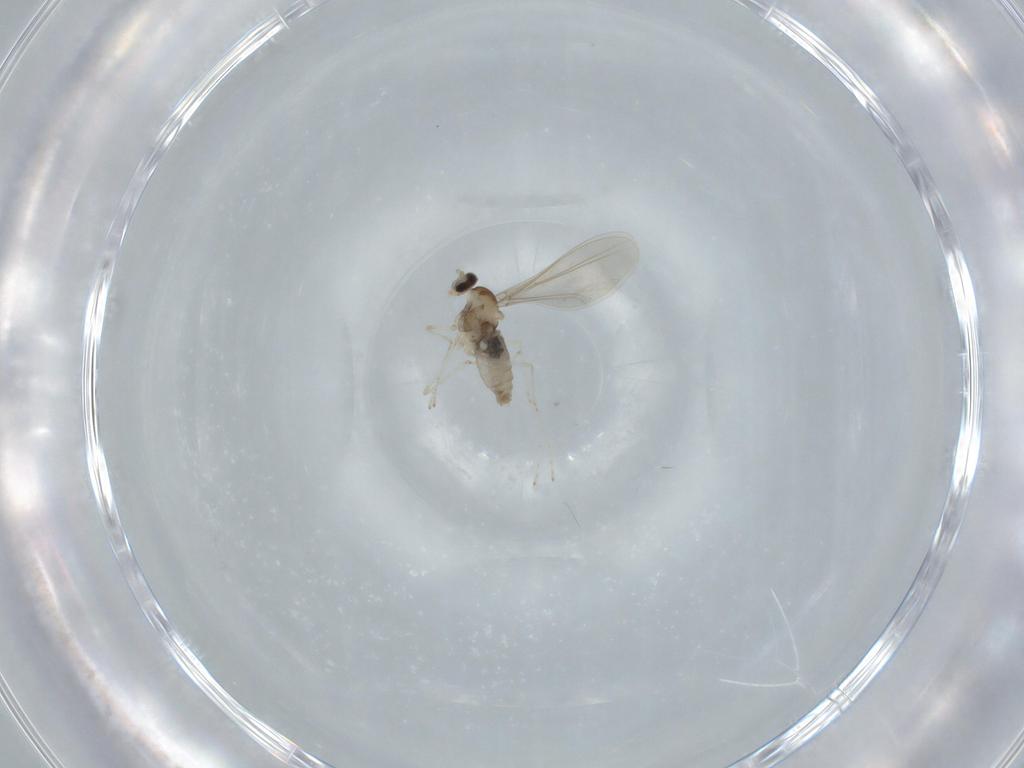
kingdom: Animalia
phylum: Arthropoda
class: Insecta
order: Diptera
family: Cecidomyiidae
